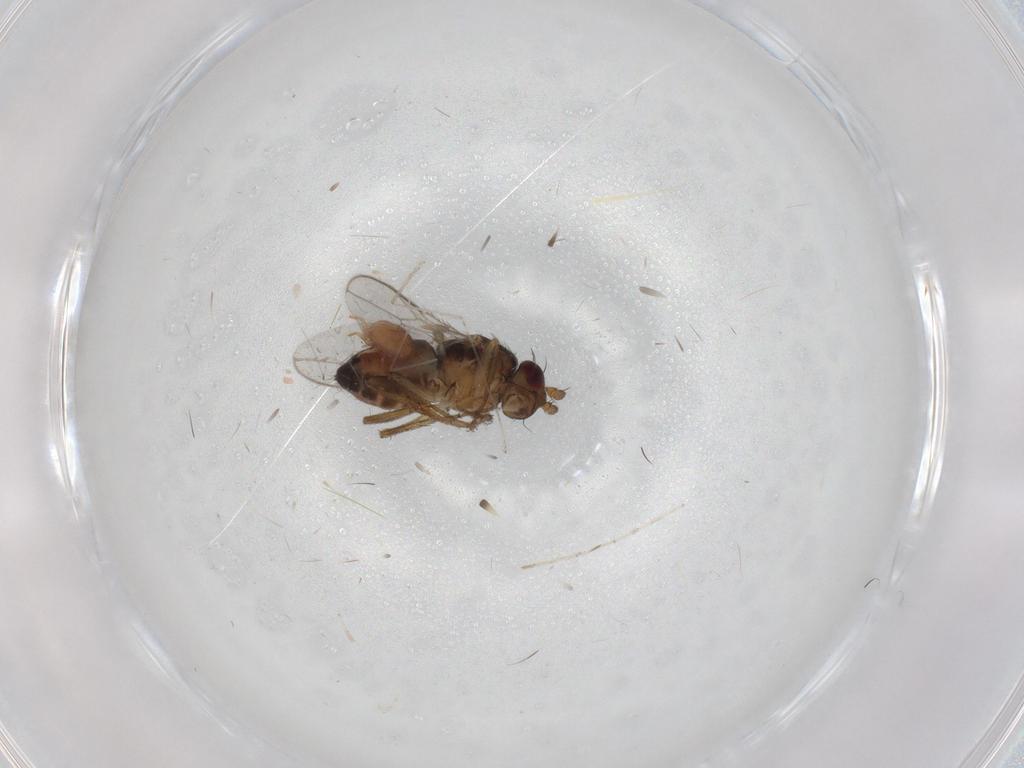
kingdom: Animalia
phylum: Arthropoda
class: Arachnida
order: Mesostigmata
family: Polyaspididae
